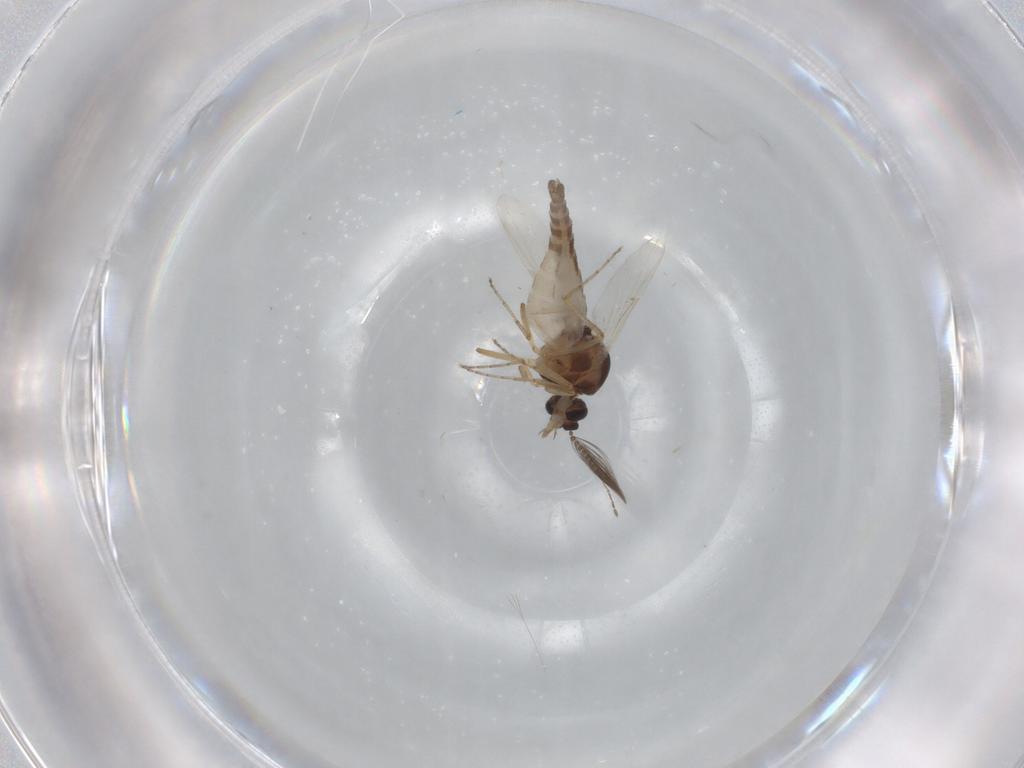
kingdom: Animalia
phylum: Arthropoda
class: Insecta
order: Diptera
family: Ceratopogonidae
